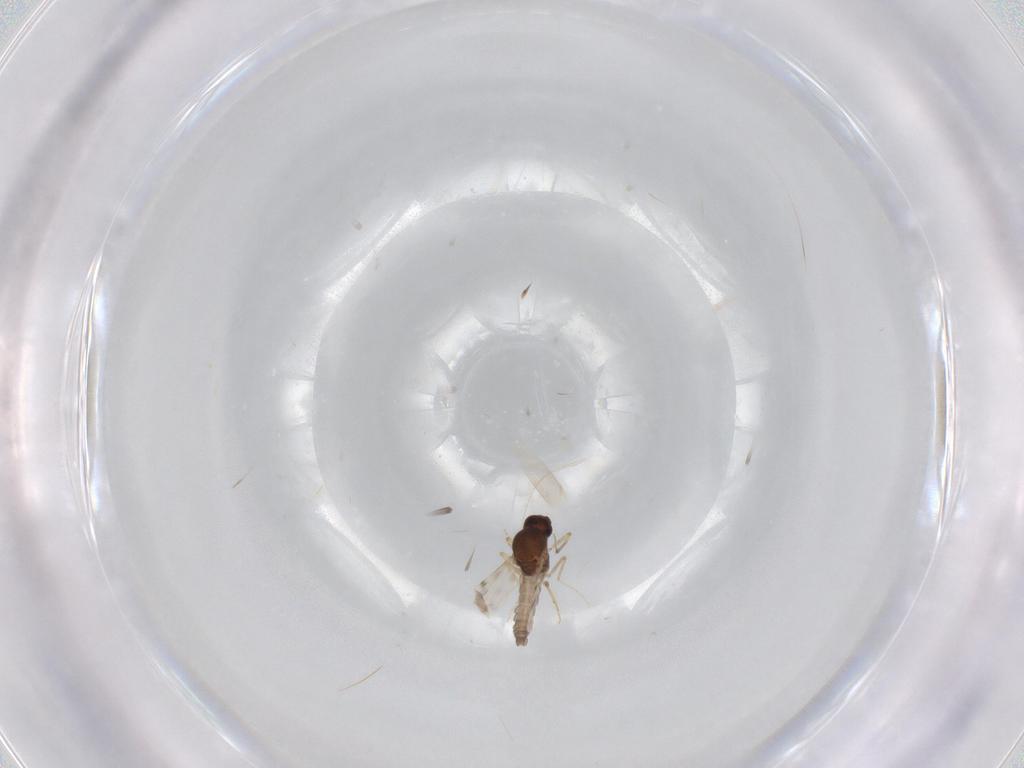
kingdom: Animalia
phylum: Arthropoda
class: Insecta
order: Diptera
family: Ceratopogonidae
